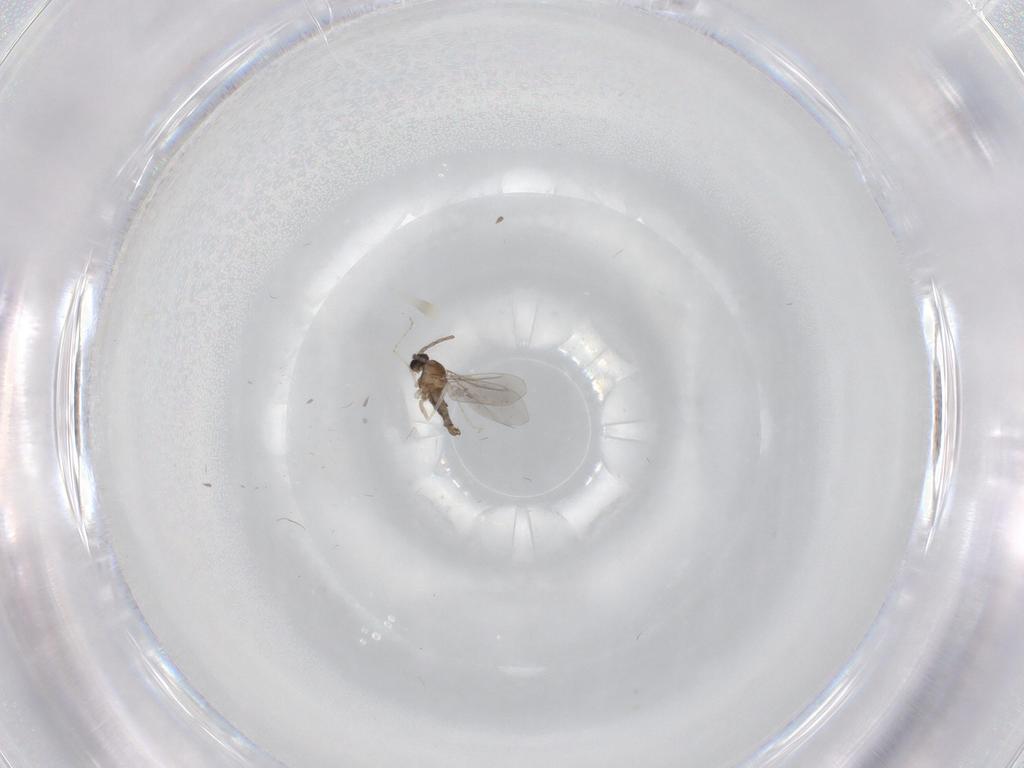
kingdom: Animalia
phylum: Arthropoda
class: Insecta
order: Diptera
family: Cecidomyiidae
